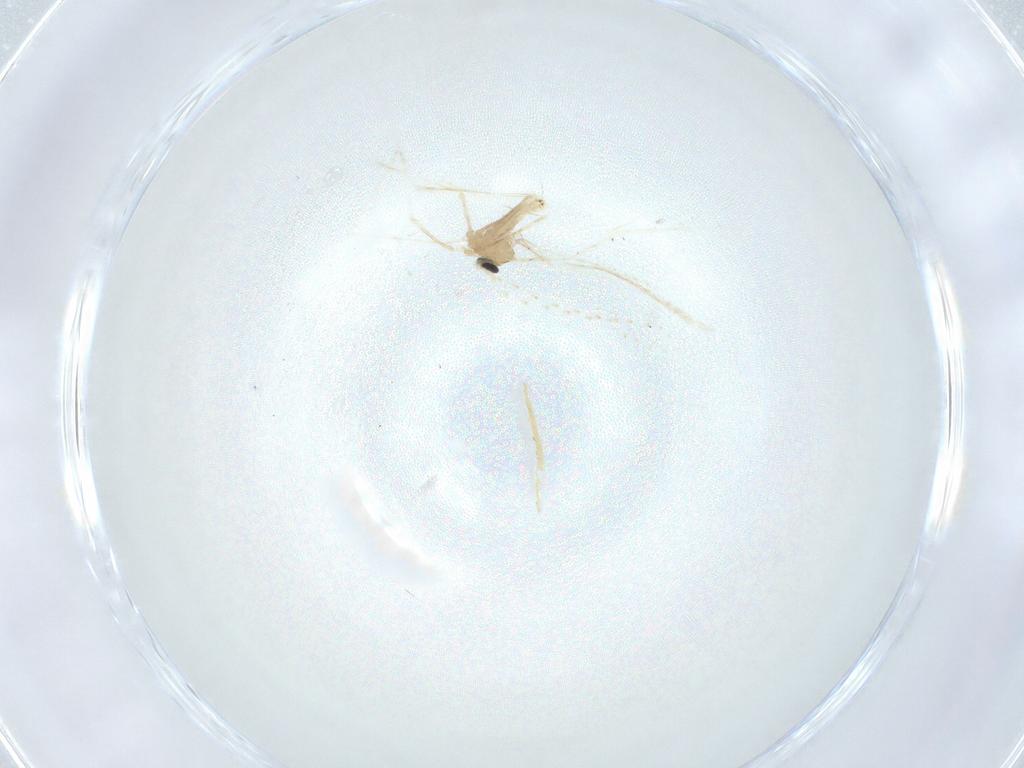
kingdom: Animalia
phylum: Arthropoda
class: Insecta
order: Diptera
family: Cecidomyiidae
